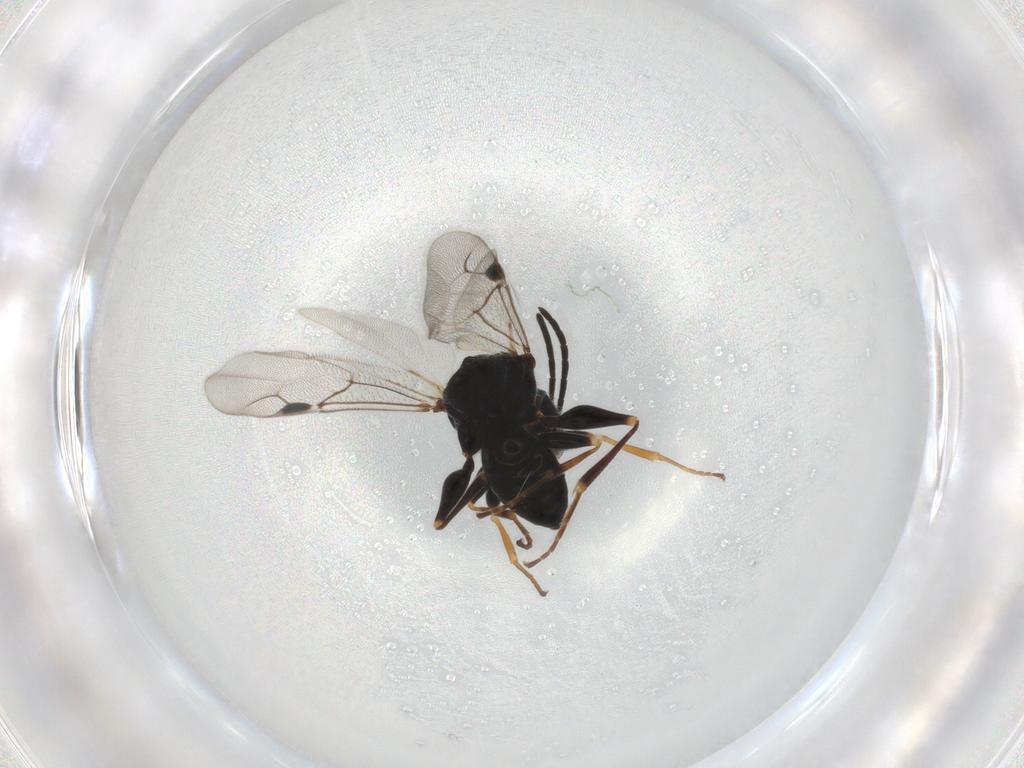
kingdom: Animalia
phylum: Arthropoda
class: Insecta
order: Hymenoptera
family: Dryinidae
